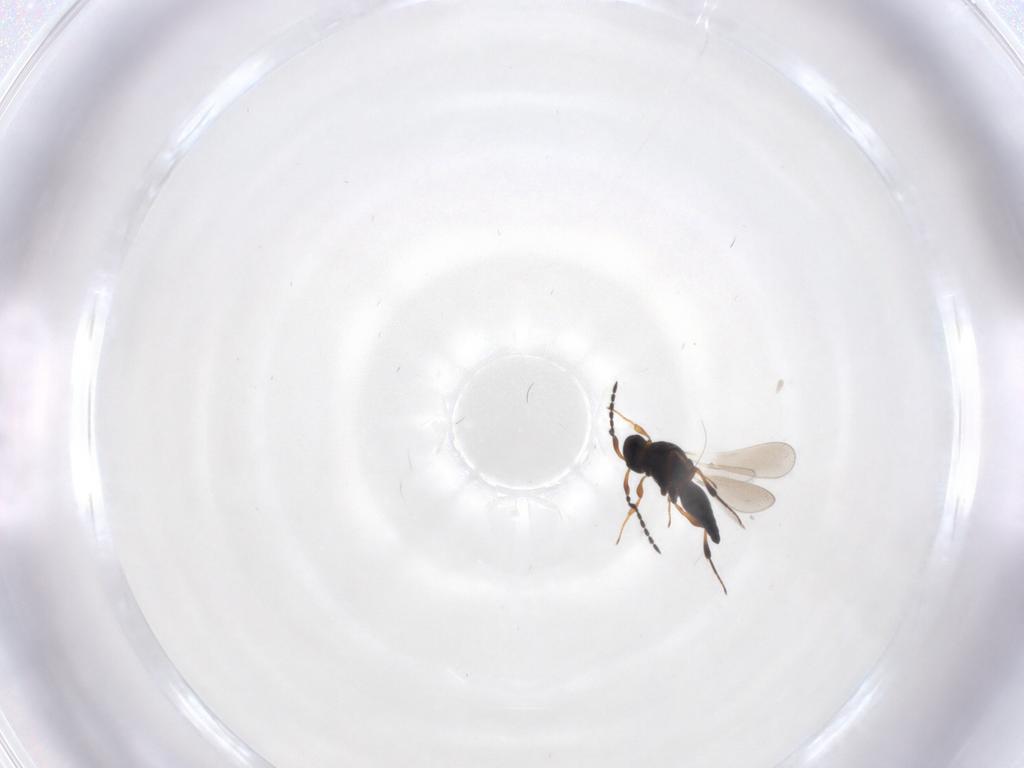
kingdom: Animalia
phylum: Arthropoda
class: Insecta
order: Hymenoptera
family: Platygastridae
